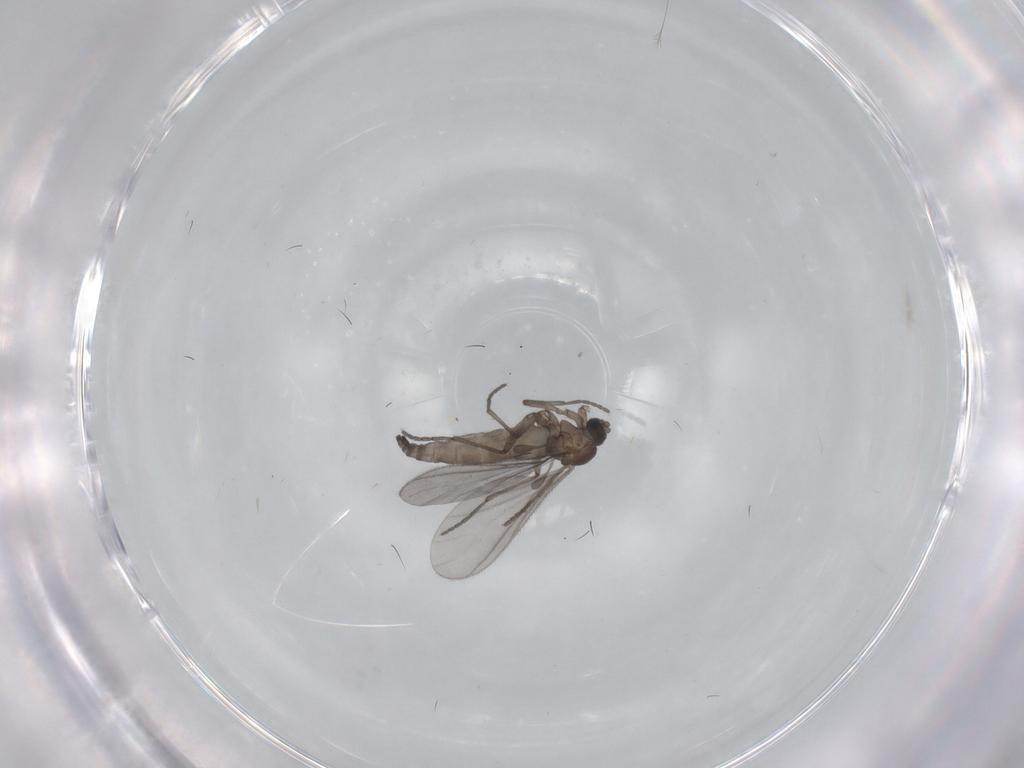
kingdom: Animalia
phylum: Arthropoda
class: Insecta
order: Diptera
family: Sciaridae
